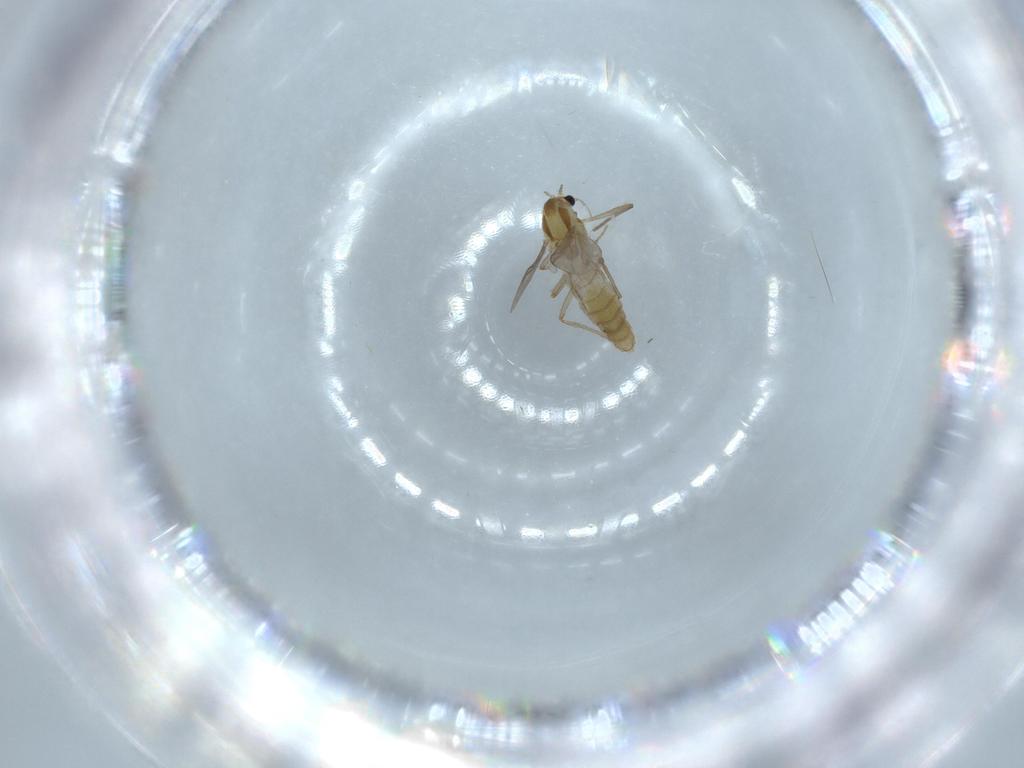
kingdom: Animalia
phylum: Arthropoda
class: Insecta
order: Diptera
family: Chironomidae
